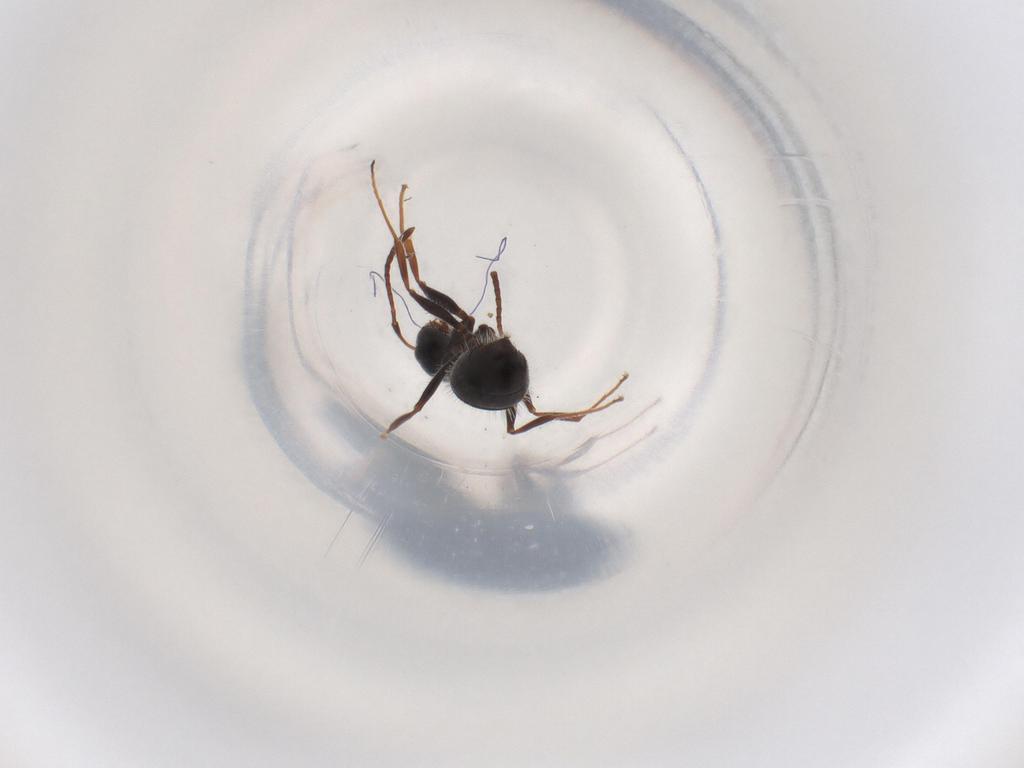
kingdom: Animalia
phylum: Arthropoda
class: Insecta
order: Hymenoptera
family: Formicidae
